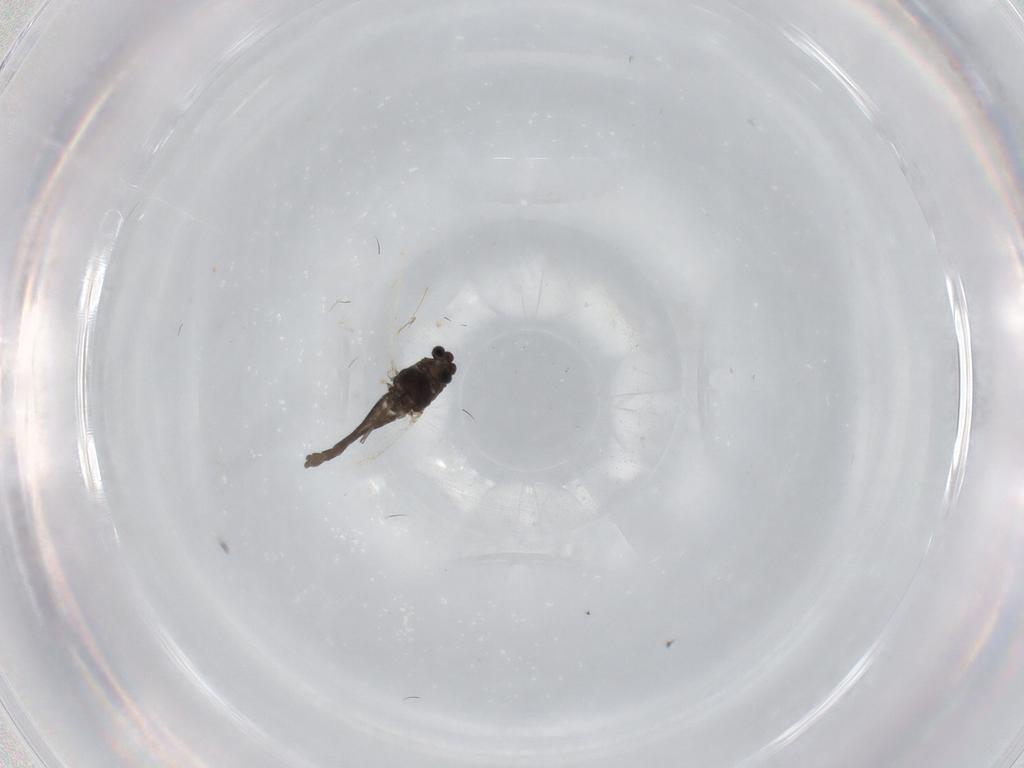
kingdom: Animalia
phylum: Arthropoda
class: Insecta
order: Diptera
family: Chironomidae
